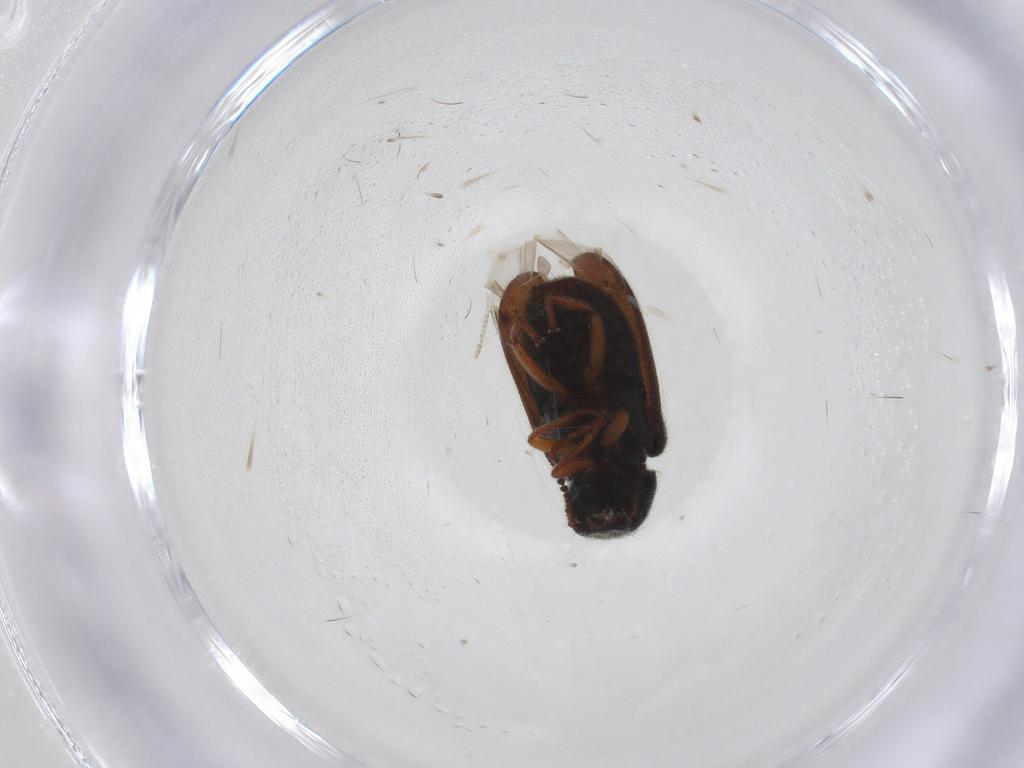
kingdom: Animalia
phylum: Arthropoda
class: Insecta
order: Coleoptera
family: Melyridae
